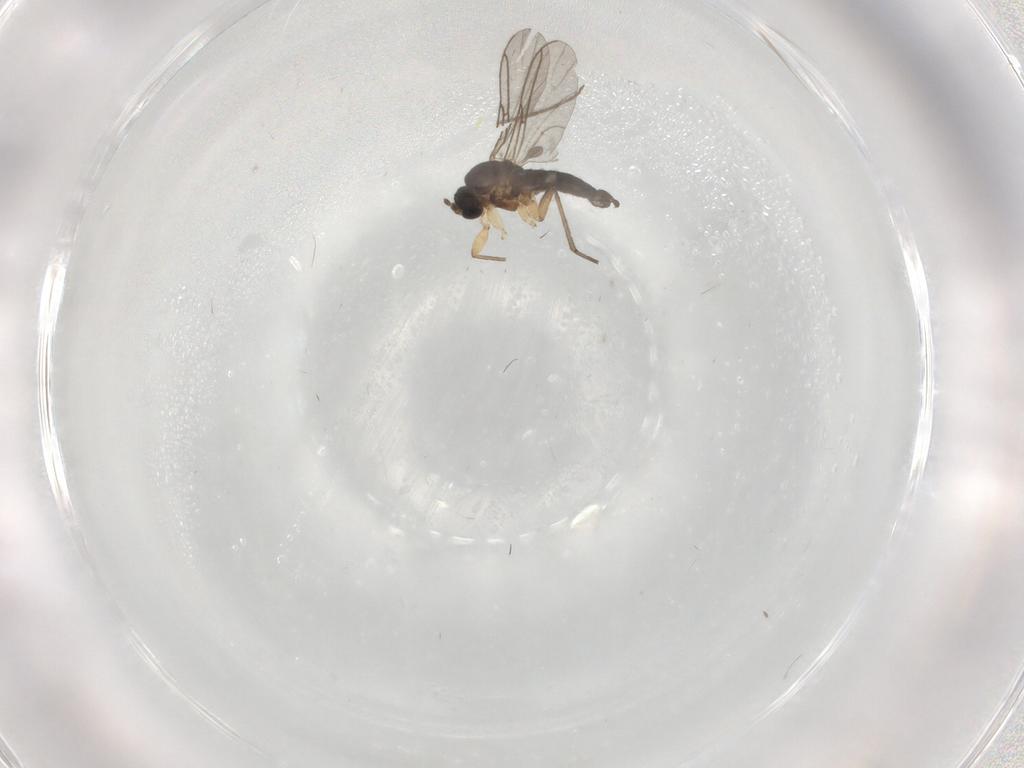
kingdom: Animalia
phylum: Arthropoda
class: Insecta
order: Diptera
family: Sciaridae
